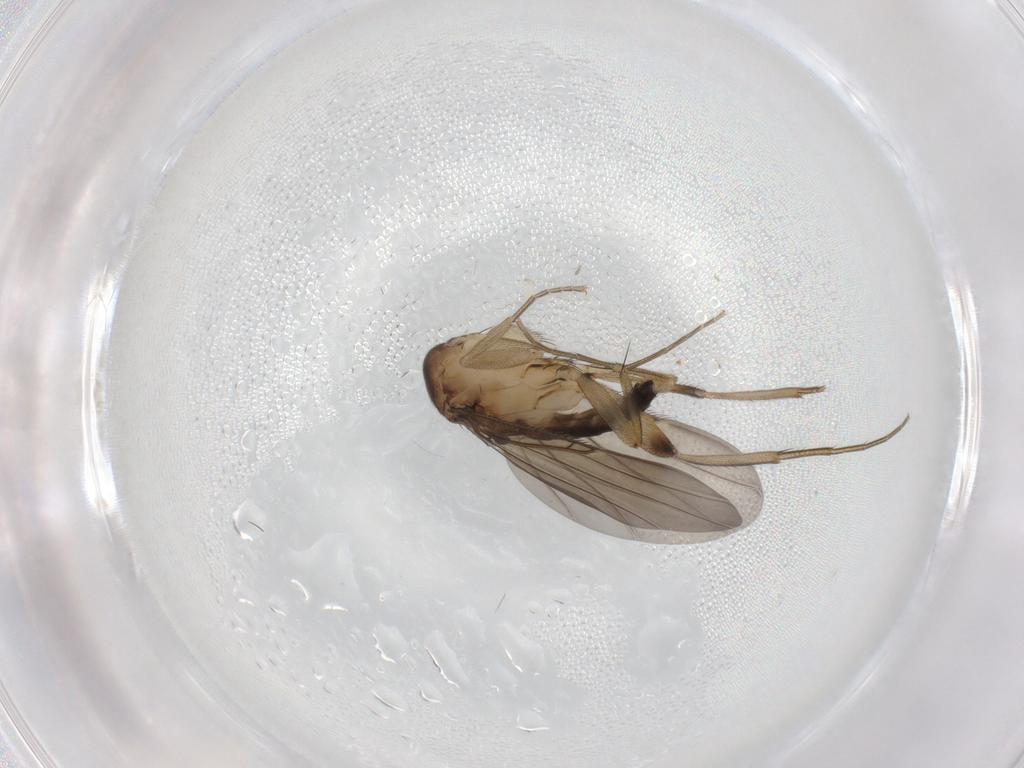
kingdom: Animalia
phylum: Arthropoda
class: Insecta
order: Diptera
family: Phoridae
